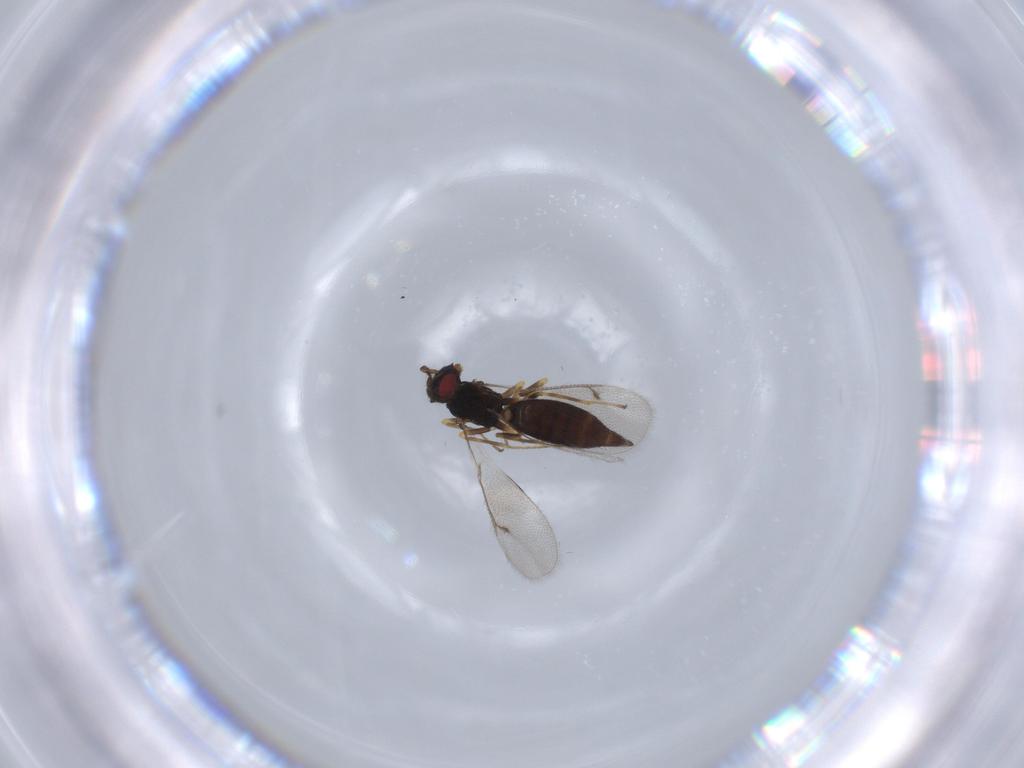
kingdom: Animalia
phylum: Arthropoda
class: Insecta
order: Hymenoptera
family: Eulophidae
